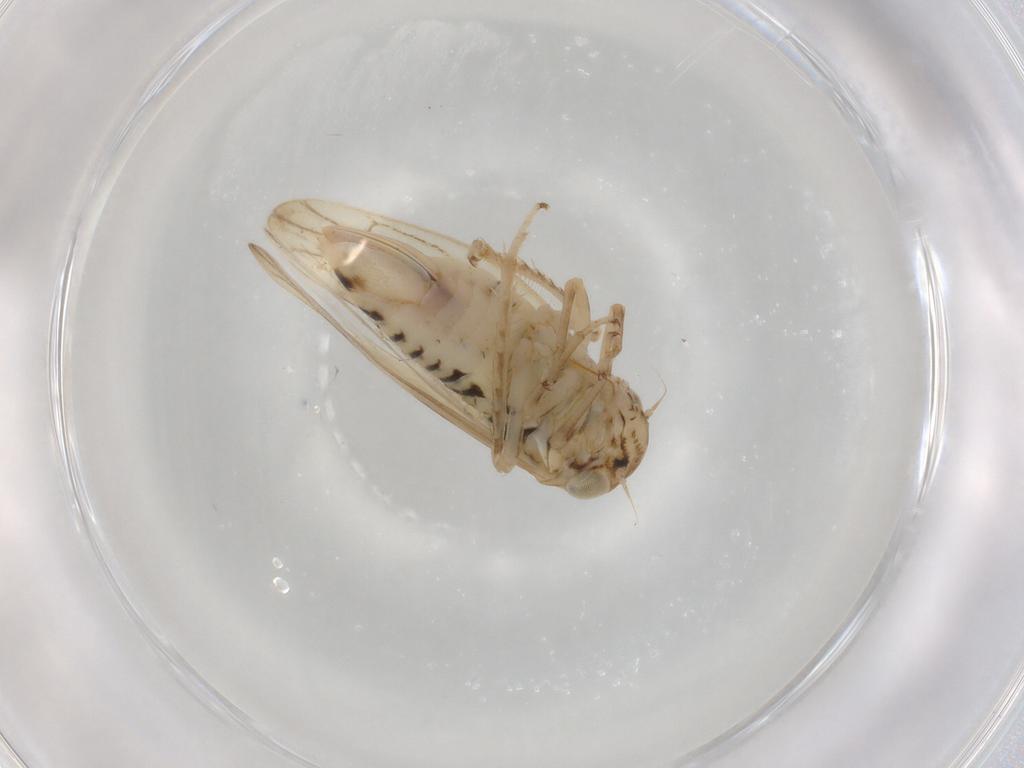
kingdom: Animalia
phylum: Arthropoda
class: Insecta
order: Hemiptera
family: Cicadellidae
